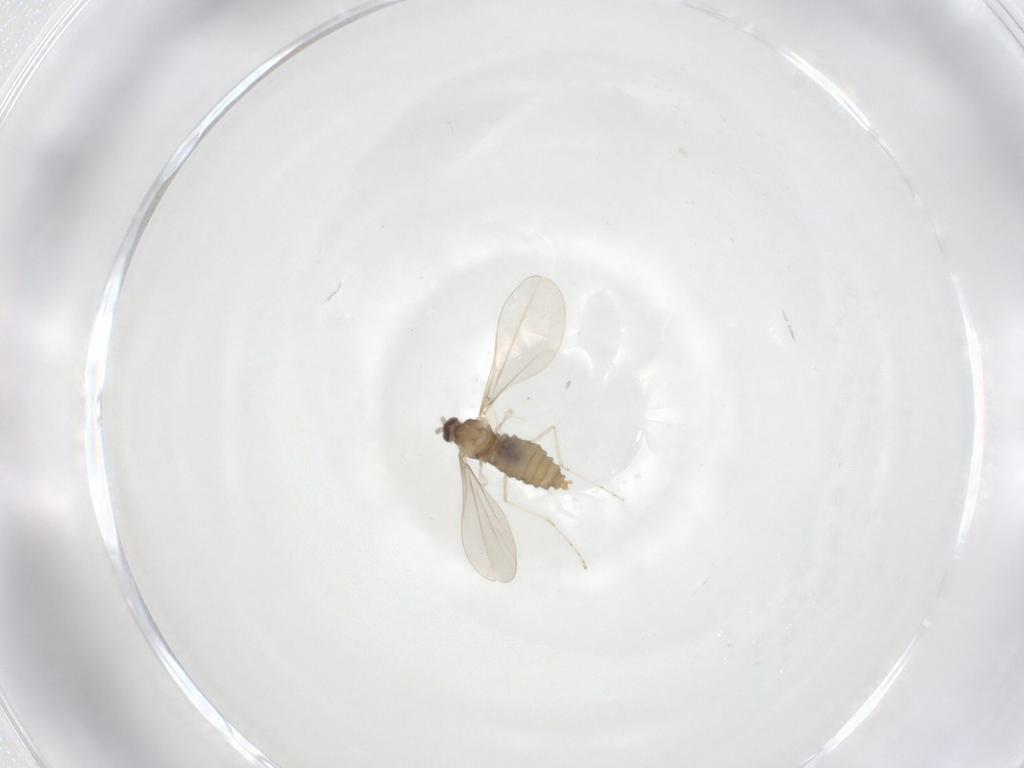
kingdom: Animalia
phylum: Arthropoda
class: Insecta
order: Diptera
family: Cecidomyiidae
